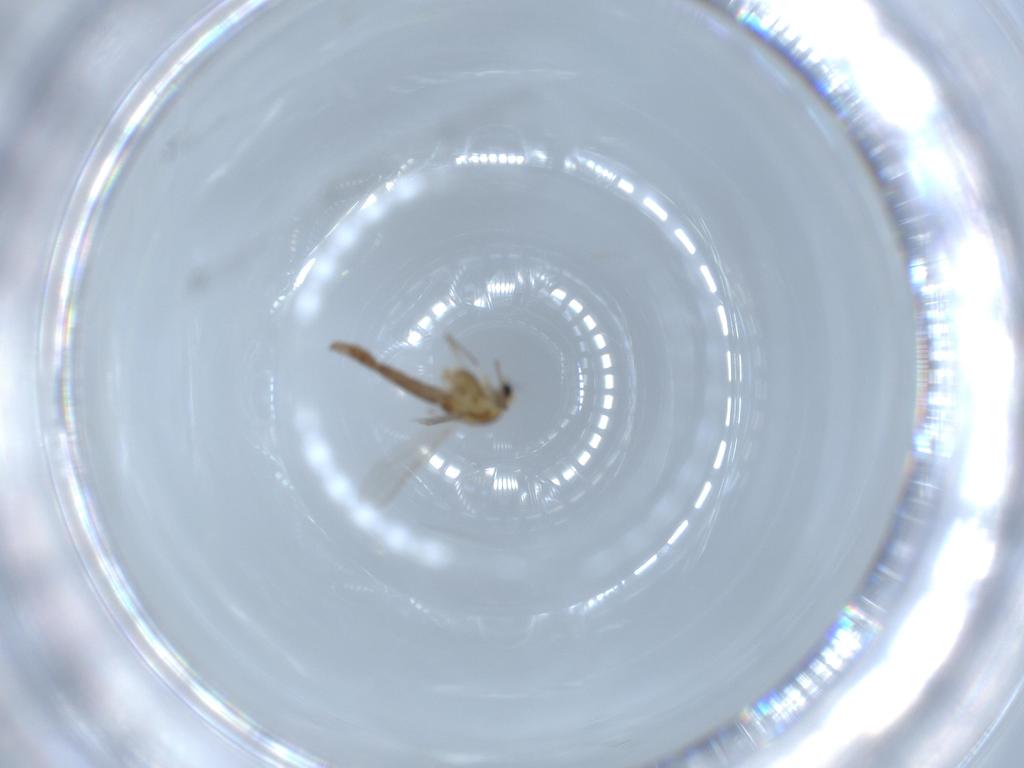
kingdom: Animalia
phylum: Arthropoda
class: Insecta
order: Diptera
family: Chironomidae
